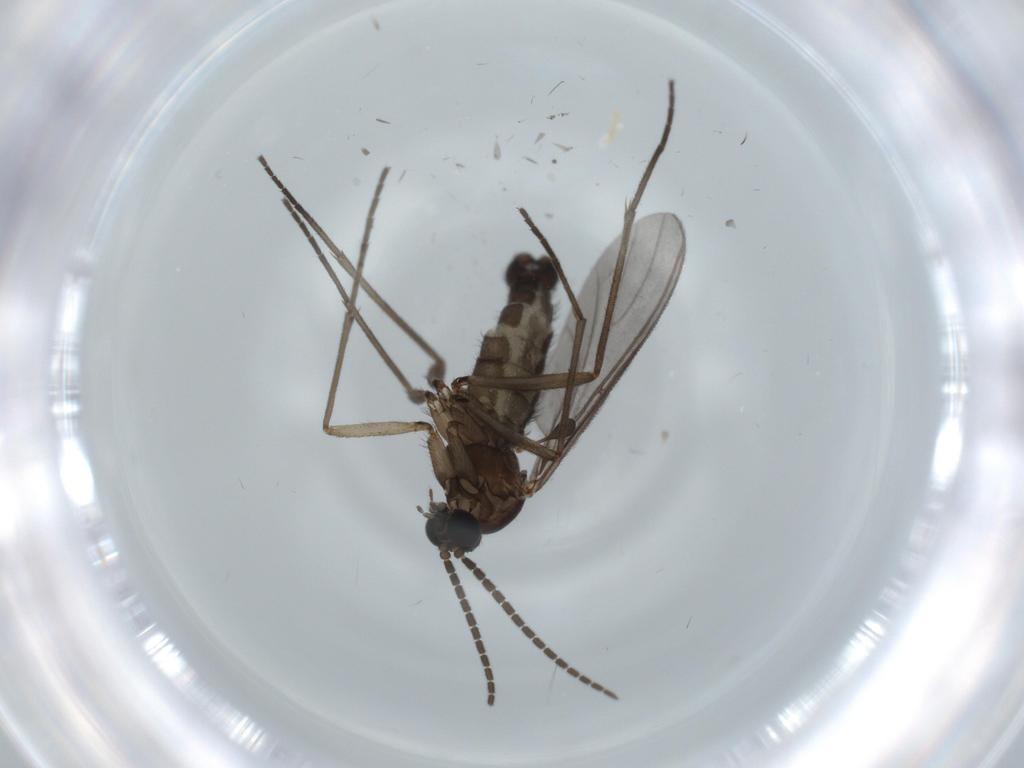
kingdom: Animalia
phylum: Arthropoda
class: Insecta
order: Diptera
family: Sciaridae
